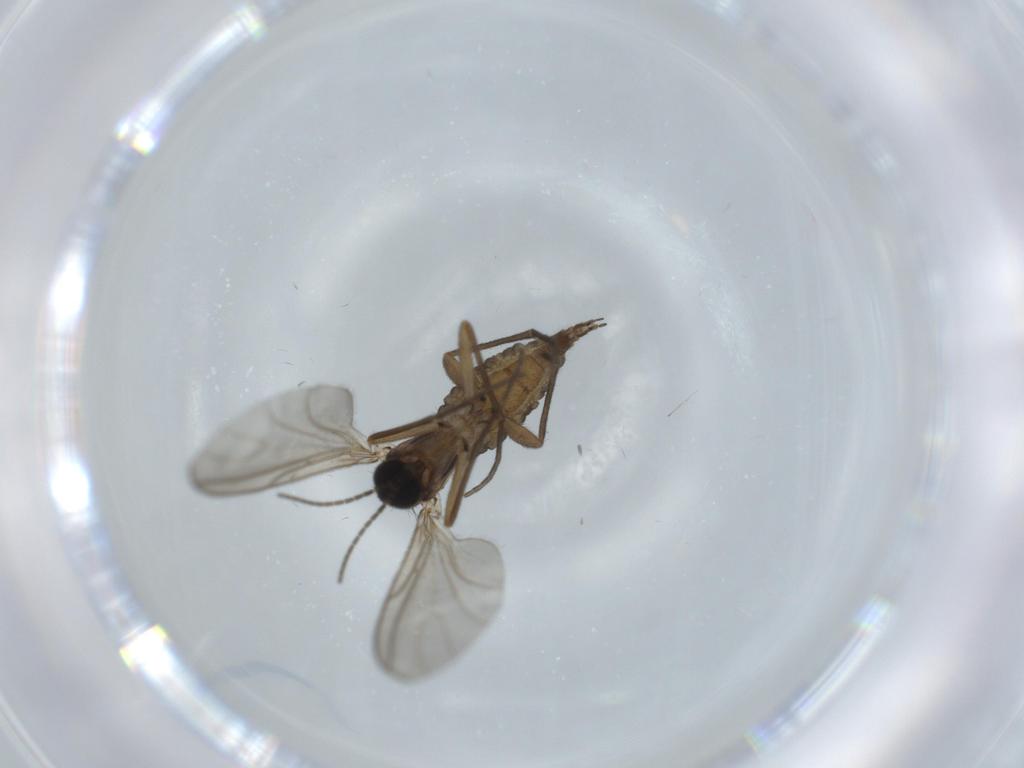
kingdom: Animalia
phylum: Arthropoda
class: Insecta
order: Diptera
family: Sciaridae
